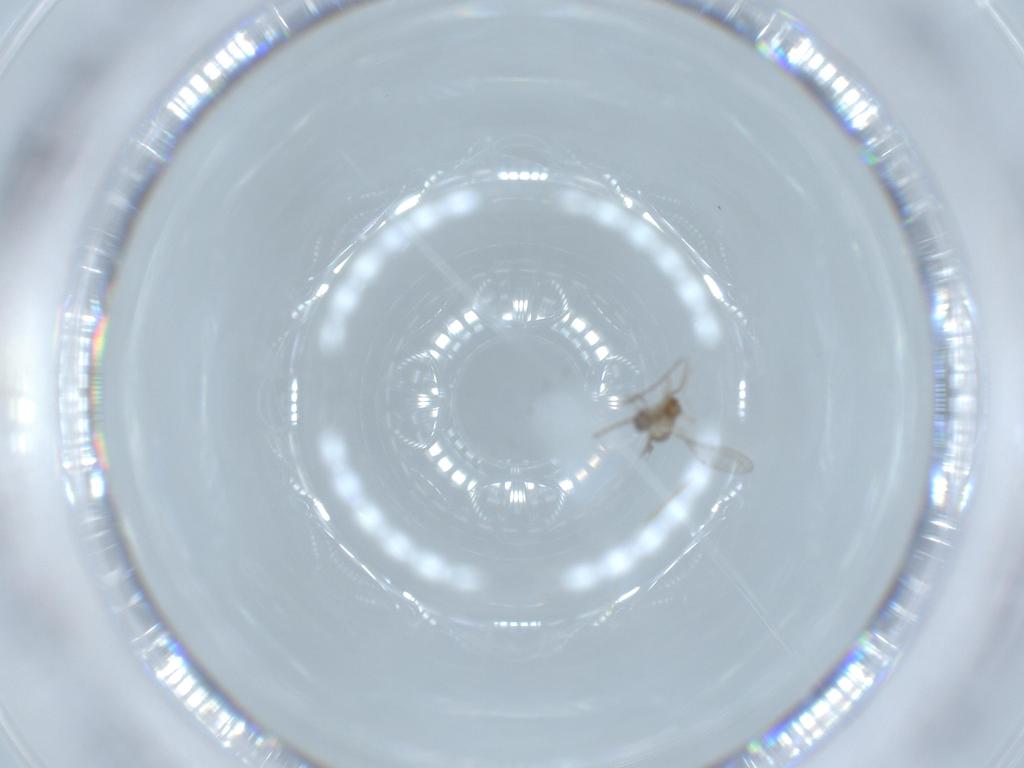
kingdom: Animalia
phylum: Arthropoda
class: Insecta
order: Diptera
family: Cecidomyiidae
